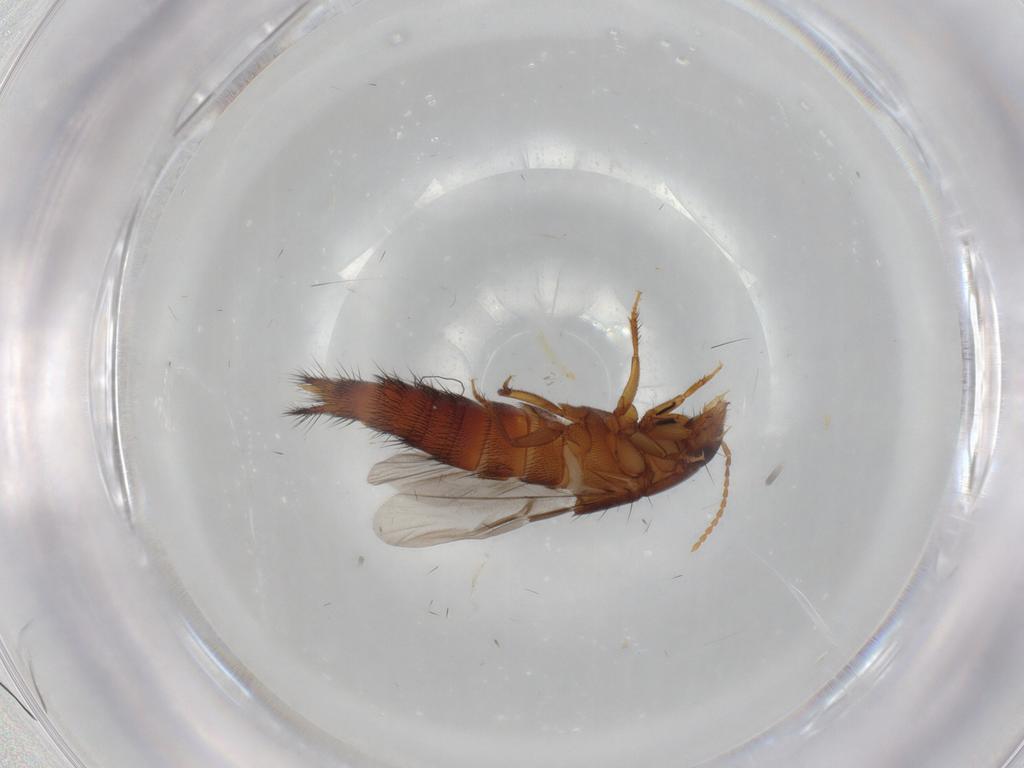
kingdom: Animalia
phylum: Arthropoda
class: Insecta
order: Coleoptera
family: Staphylinidae
